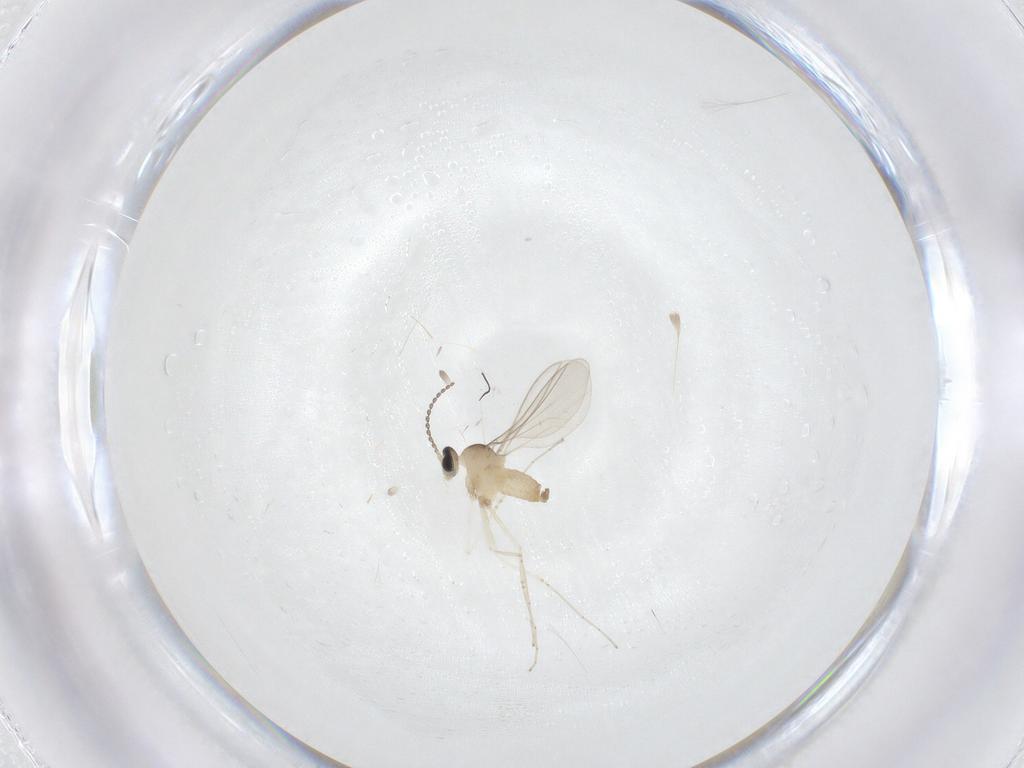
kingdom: Animalia
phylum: Arthropoda
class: Insecta
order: Diptera
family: Cecidomyiidae
